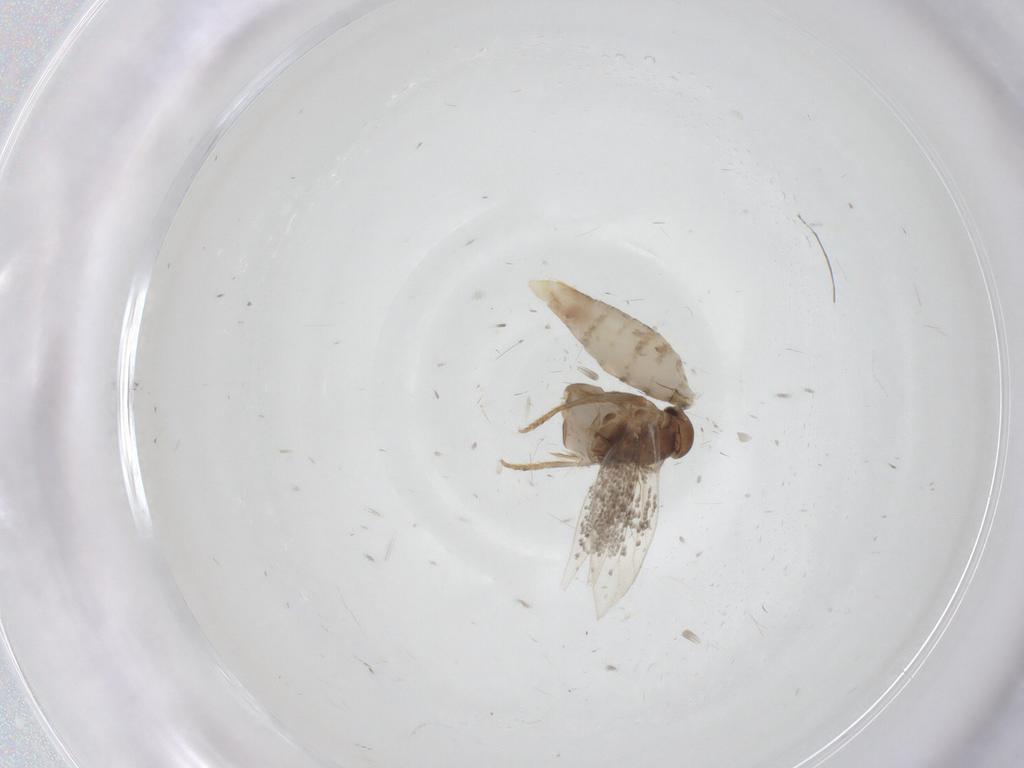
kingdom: Animalia
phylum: Arthropoda
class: Insecta
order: Lepidoptera
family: Elachistidae
